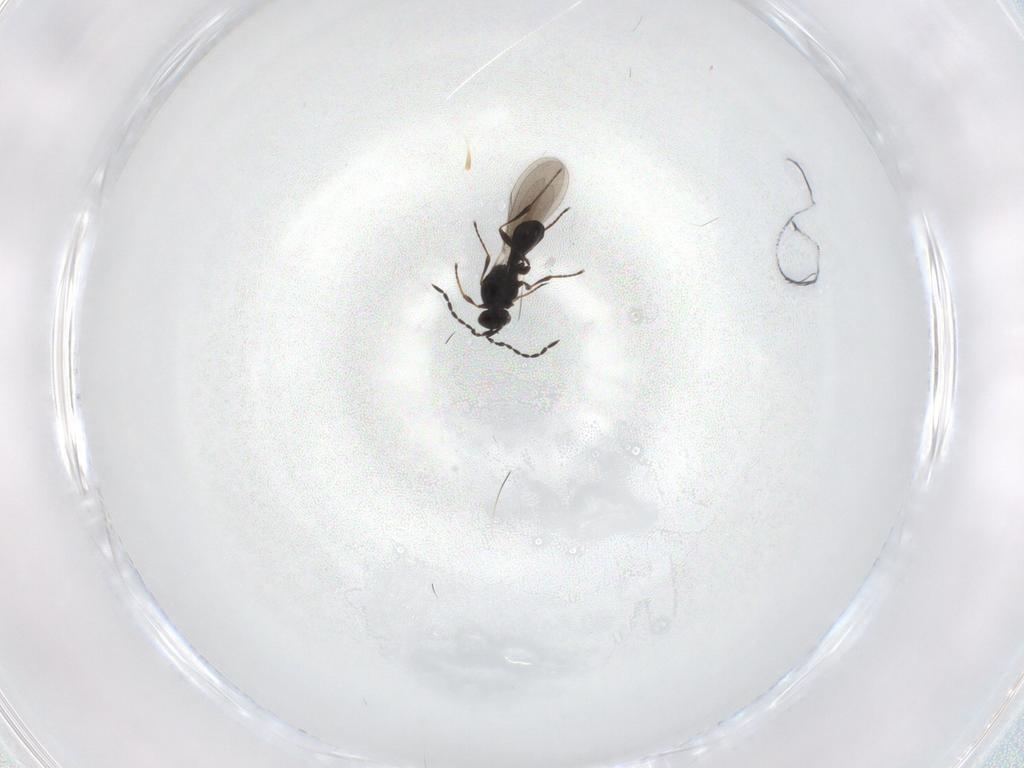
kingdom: Animalia
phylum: Arthropoda
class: Insecta
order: Hymenoptera
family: Platygastridae
